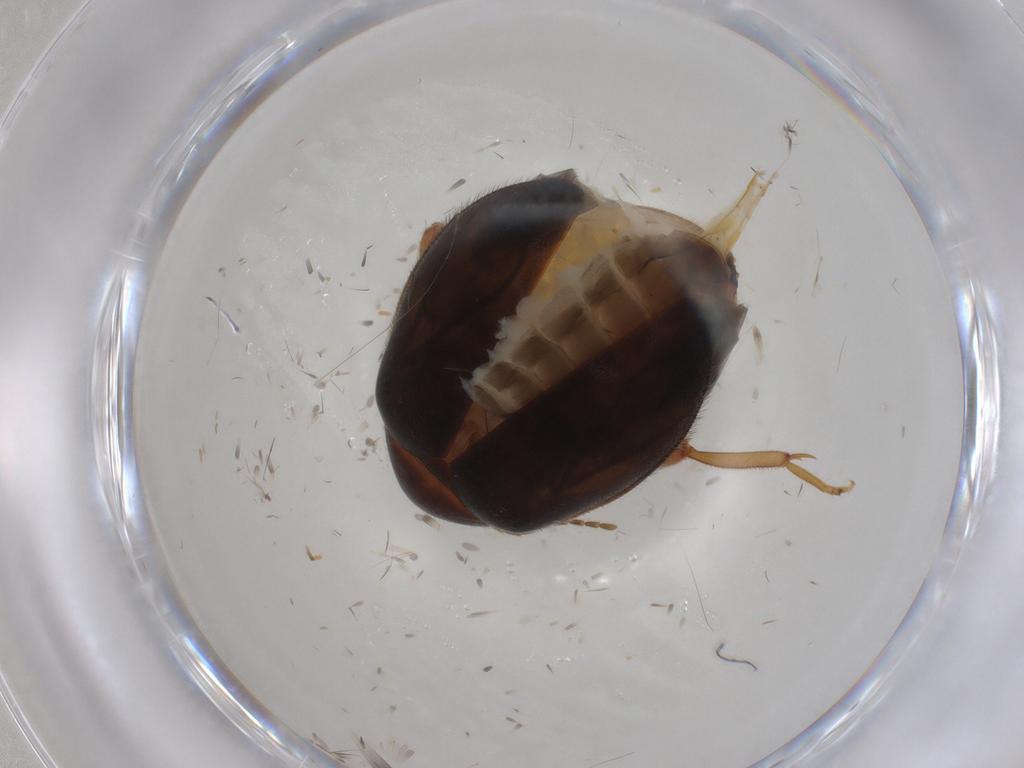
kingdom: Animalia
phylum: Arthropoda
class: Insecta
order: Coleoptera
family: Scirtidae
